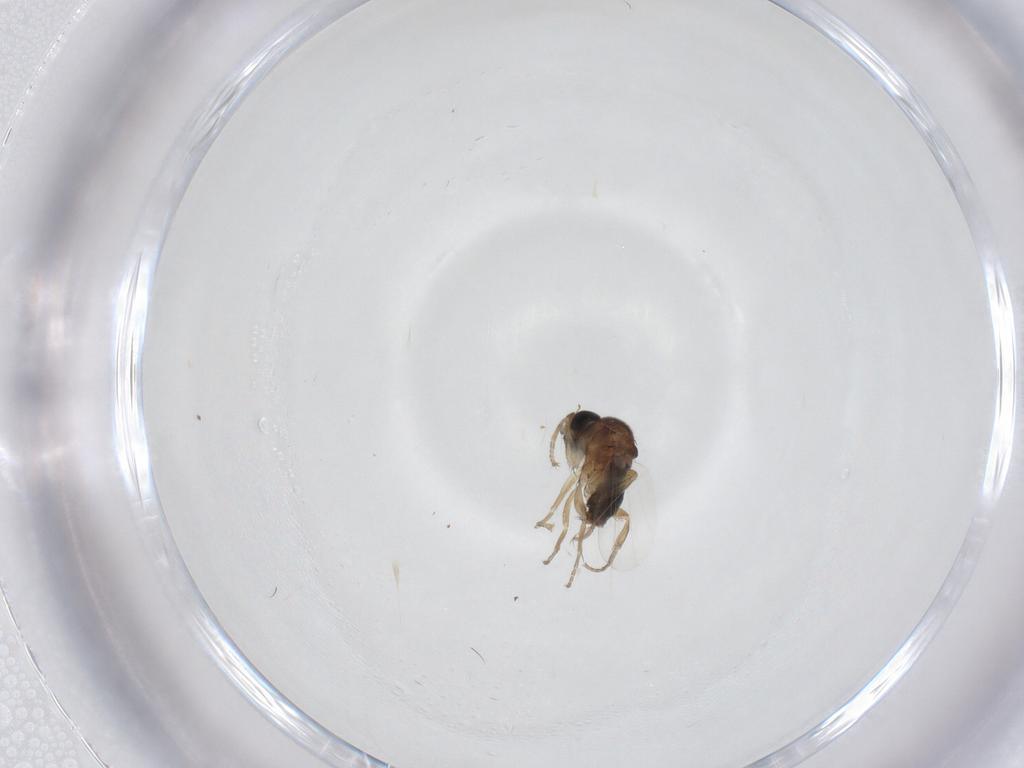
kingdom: Animalia
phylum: Arthropoda
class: Insecta
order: Diptera
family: Phoridae
